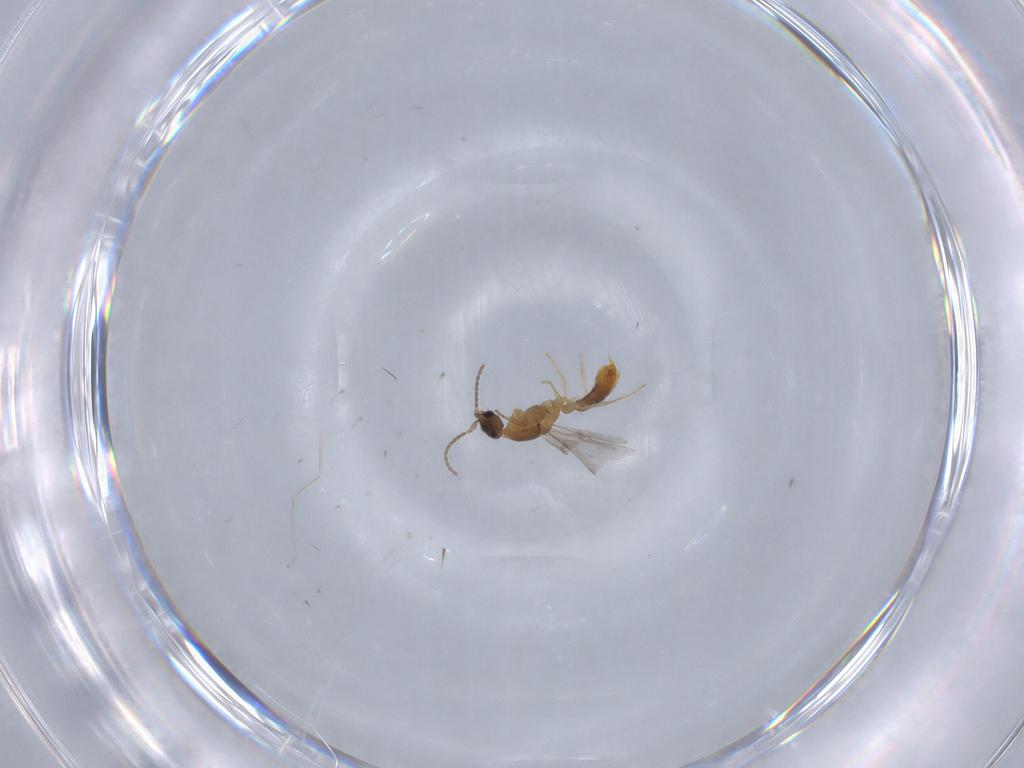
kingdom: Animalia
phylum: Arthropoda
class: Insecta
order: Hymenoptera
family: Formicidae
